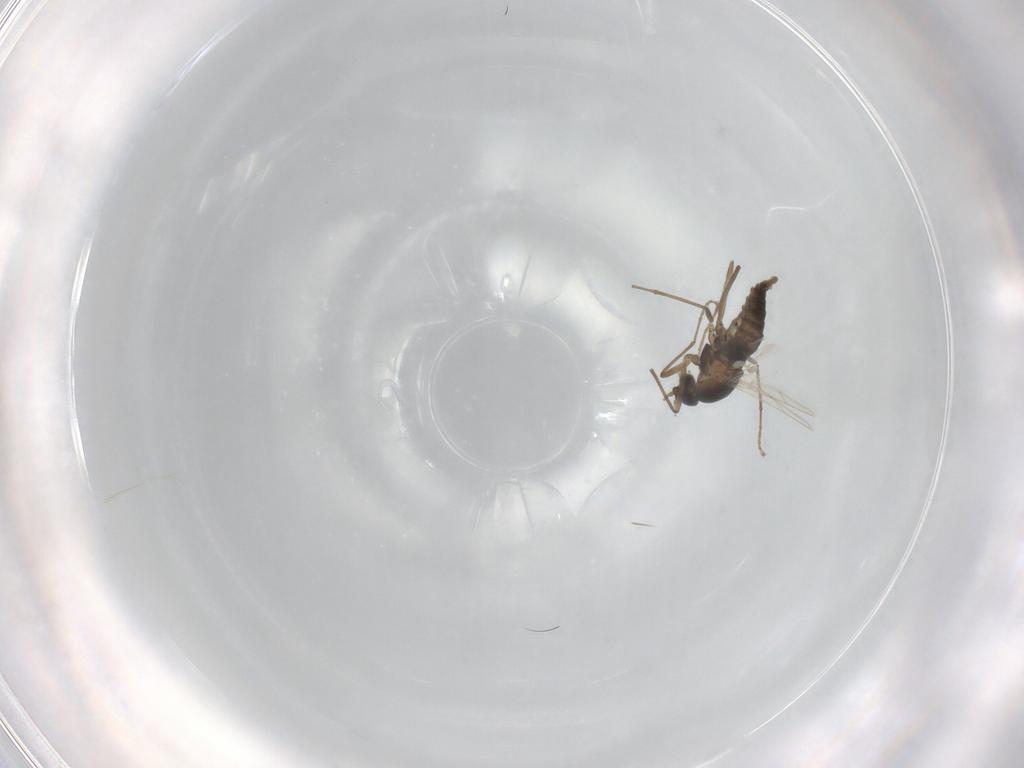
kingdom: Animalia
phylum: Arthropoda
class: Insecta
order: Diptera
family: Cecidomyiidae
